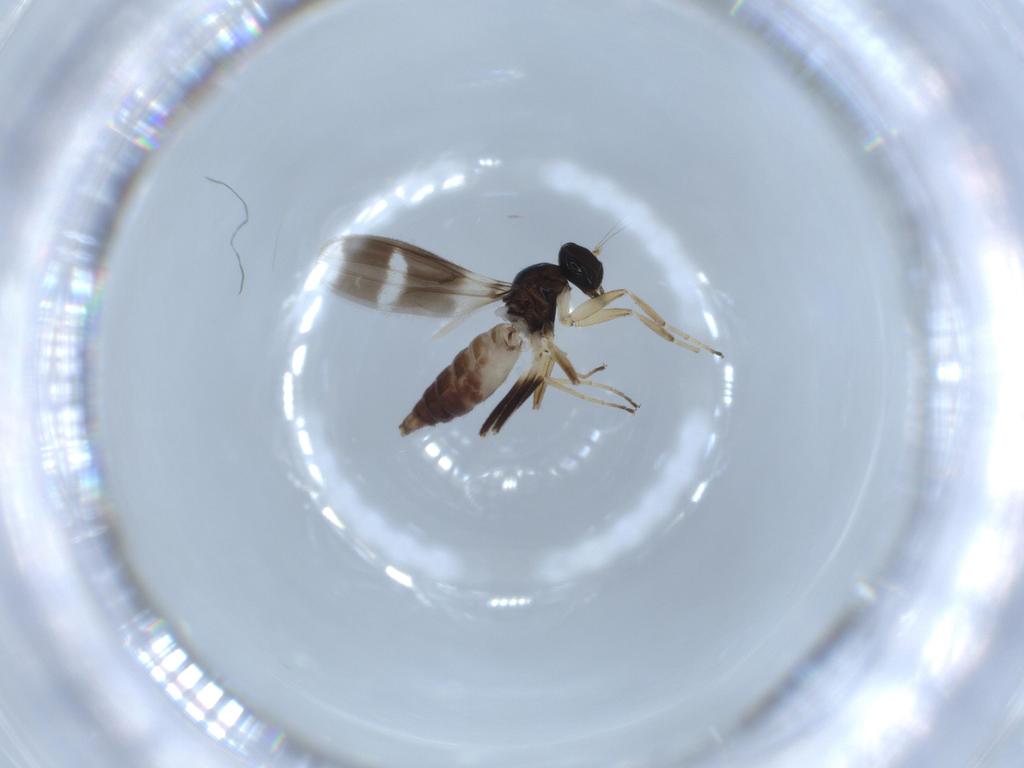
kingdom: Animalia
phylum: Arthropoda
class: Insecta
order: Diptera
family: Hybotidae
